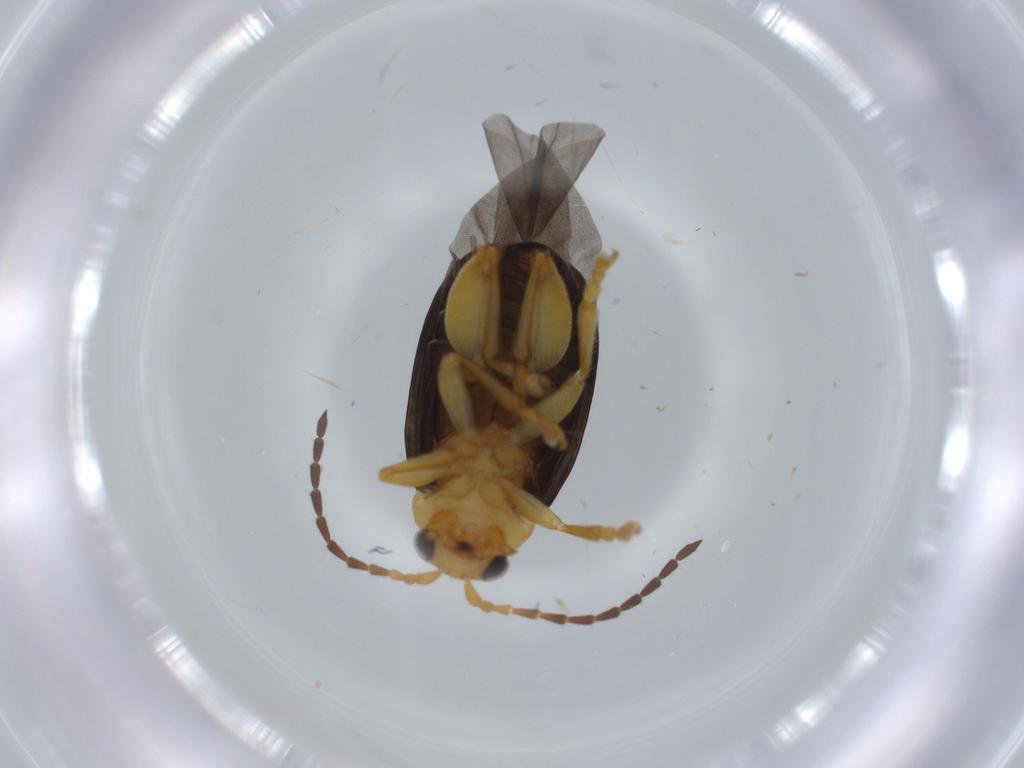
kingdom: Animalia
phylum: Arthropoda
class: Insecta
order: Coleoptera
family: Chrysomelidae
